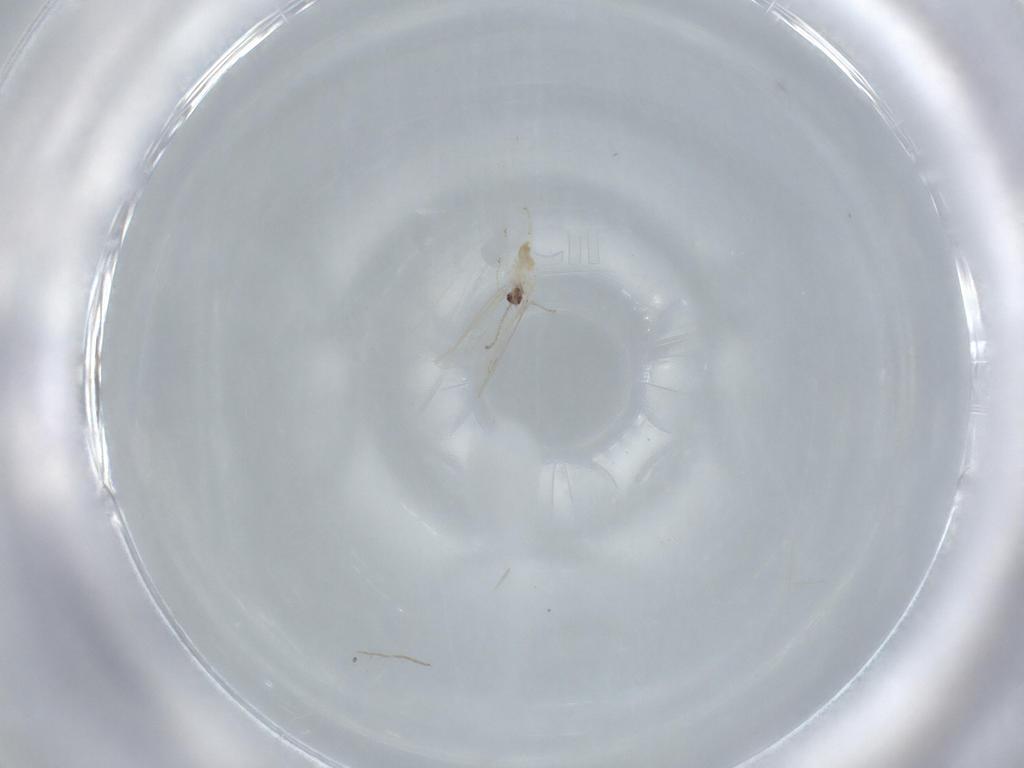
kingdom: Animalia
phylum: Arthropoda
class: Insecta
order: Diptera
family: Cecidomyiidae
